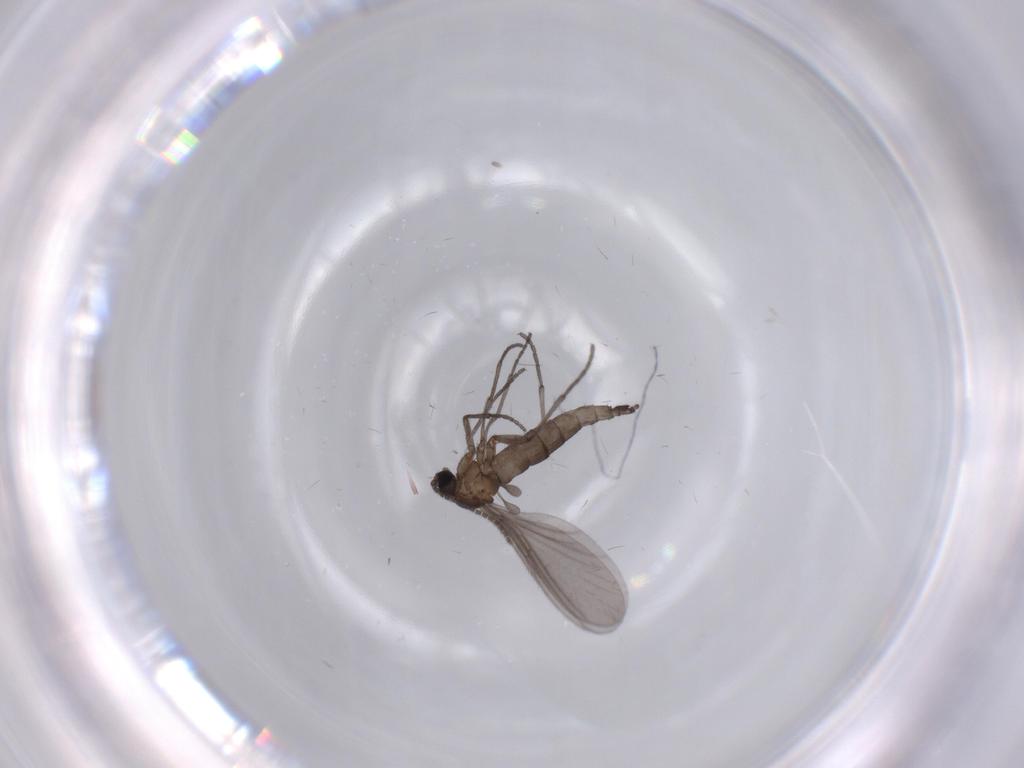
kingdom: Animalia
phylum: Arthropoda
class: Insecta
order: Diptera
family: Sciaridae
